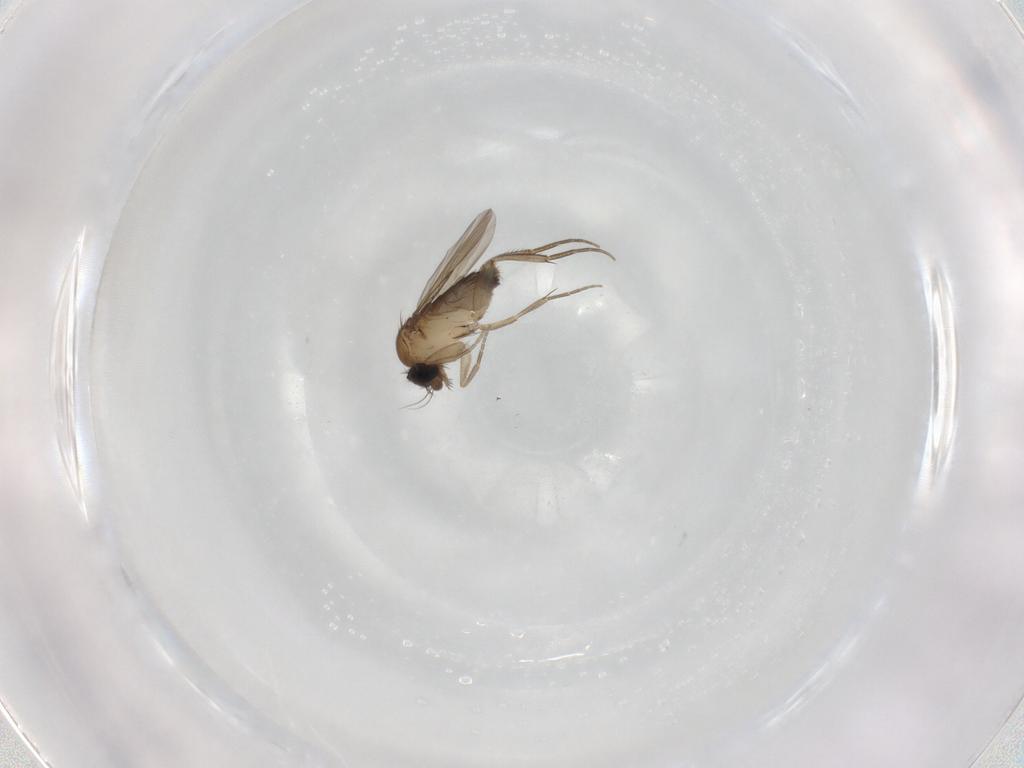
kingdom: Animalia
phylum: Arthropoda
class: Insecta
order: Diptera
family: Phoridae
